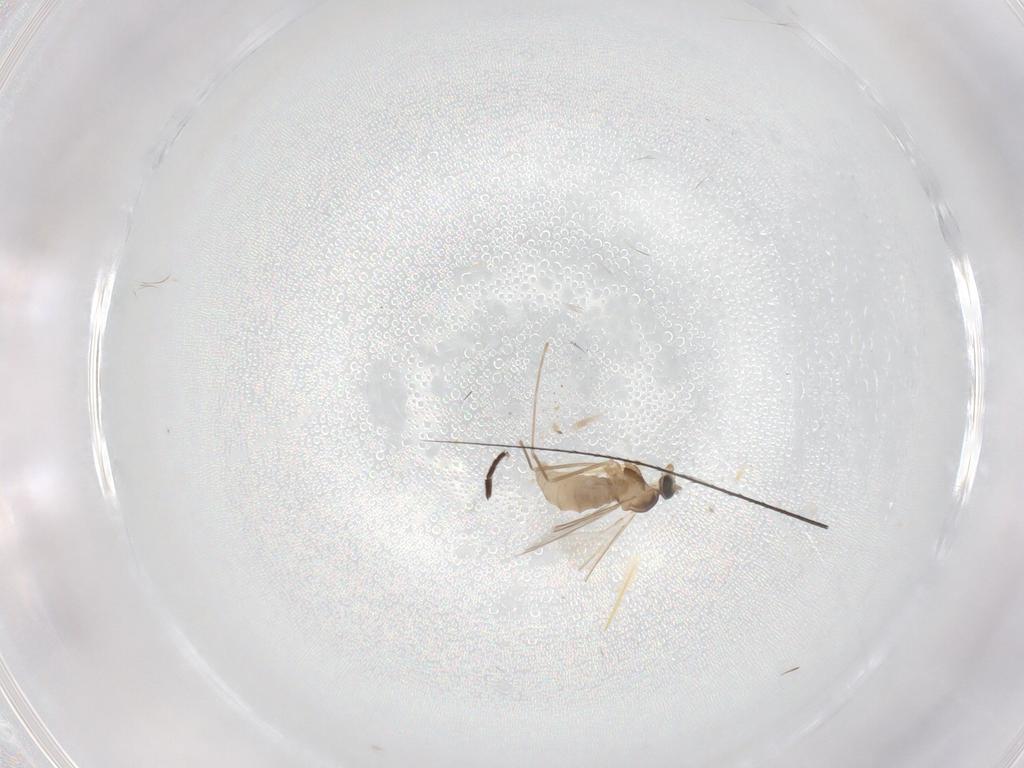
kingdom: Animalia
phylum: Arthropoda
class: Insecta
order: Diptera
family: Cecidomyiidae
